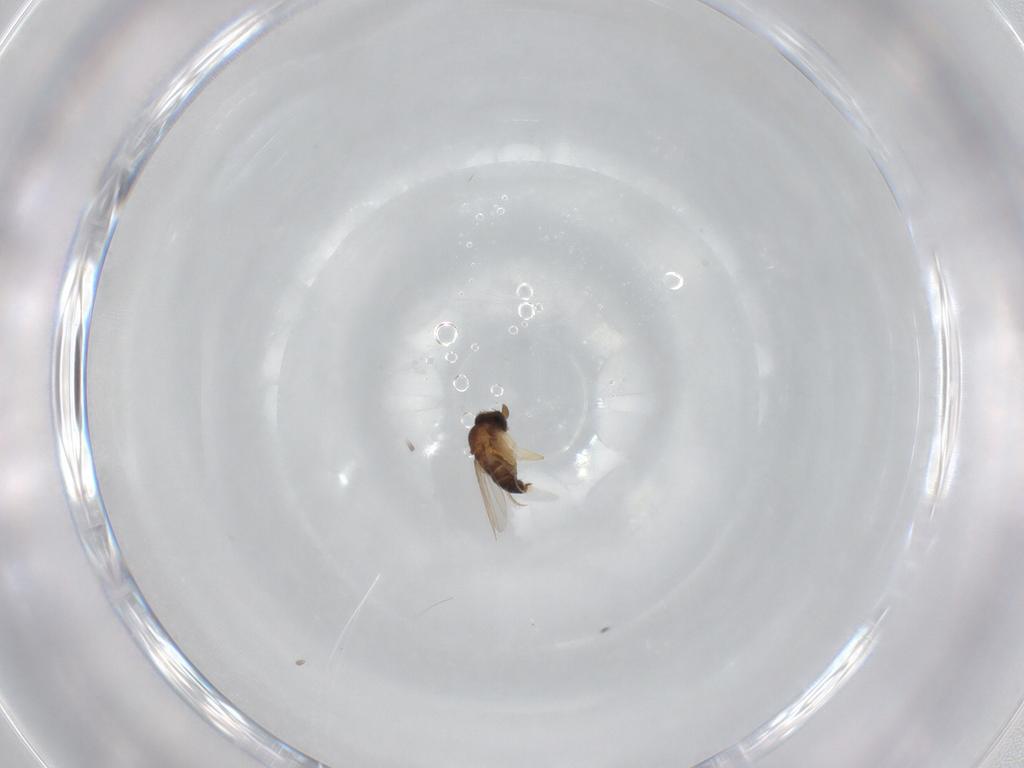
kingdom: Animalia
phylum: Arthropoda
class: Insecta
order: Diptera
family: Phoridae
